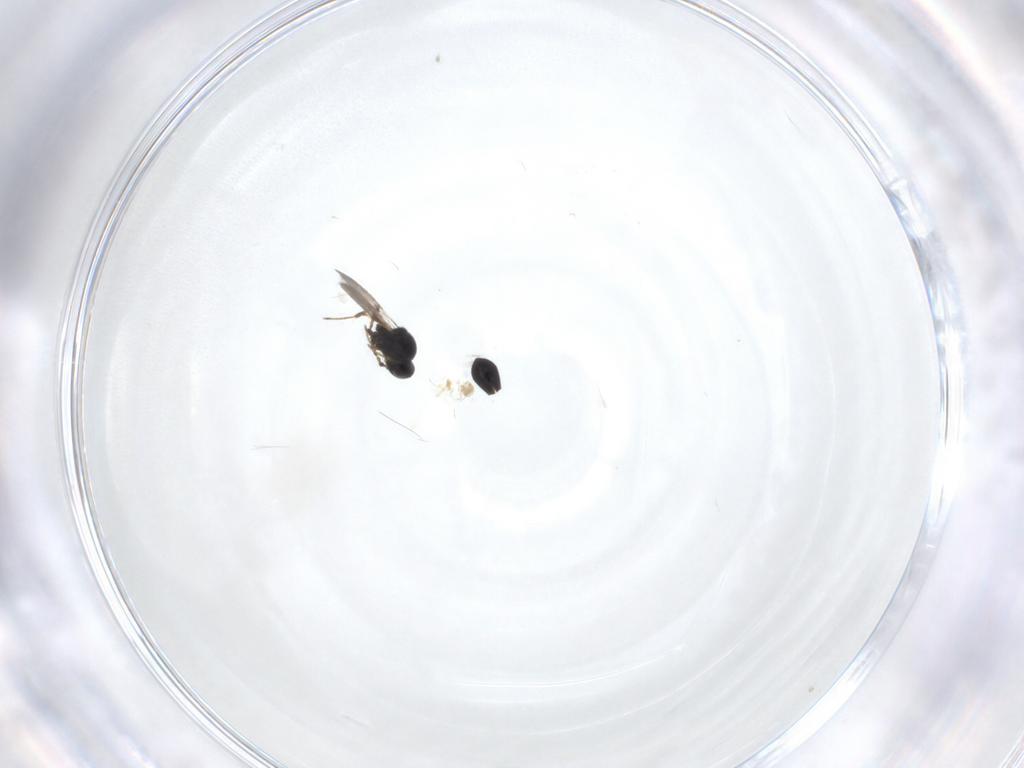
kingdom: Animalia
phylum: Arthropoda
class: Insecta
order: Hymenoptera
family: Platygastridae
